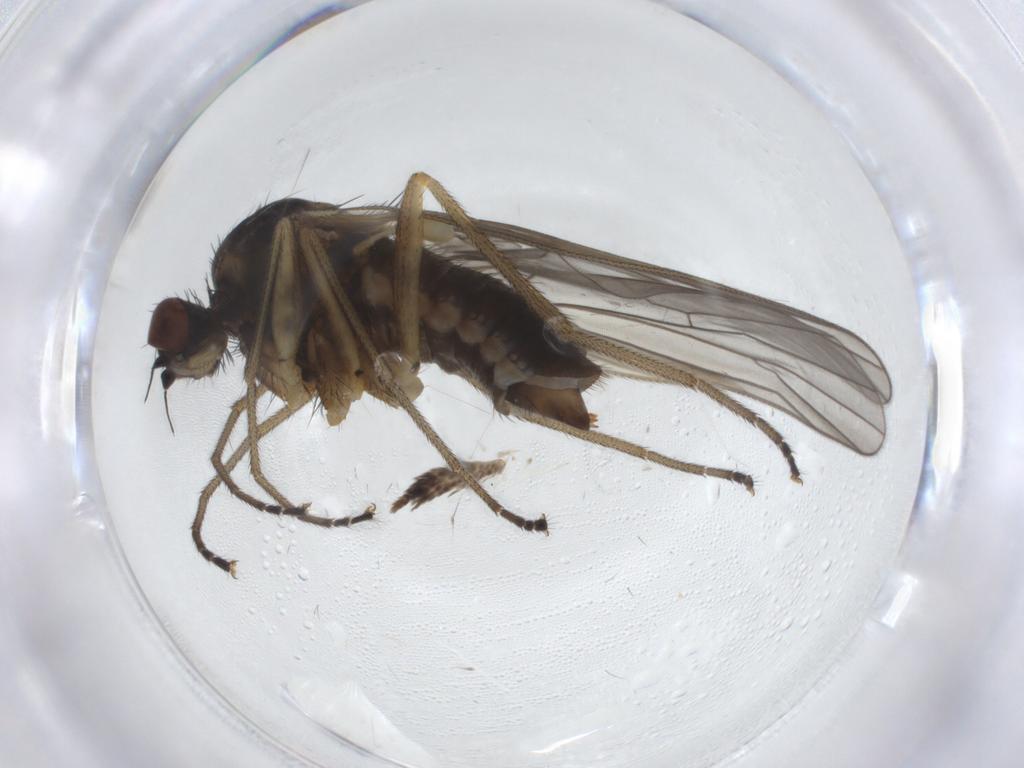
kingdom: Animalia
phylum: Arthropoda
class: Insecta
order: Diptera
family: Brachystomatidae
